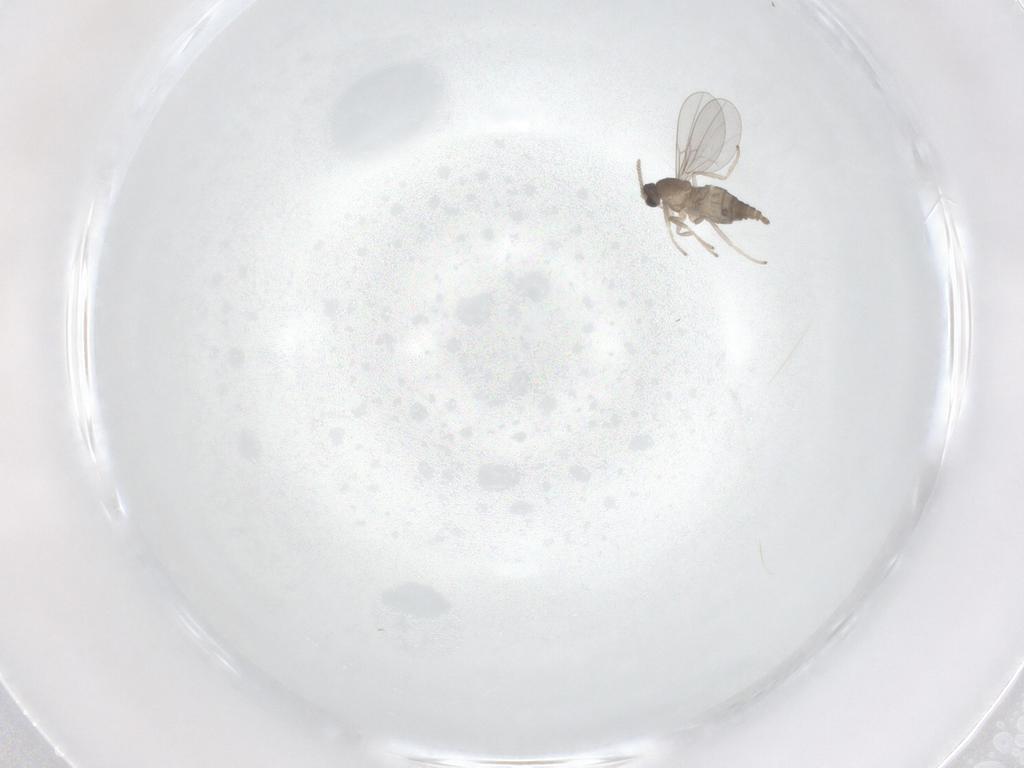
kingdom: Animalia
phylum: Arthropoda
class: Insecta
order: Diptera
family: Cecidomyiidae
